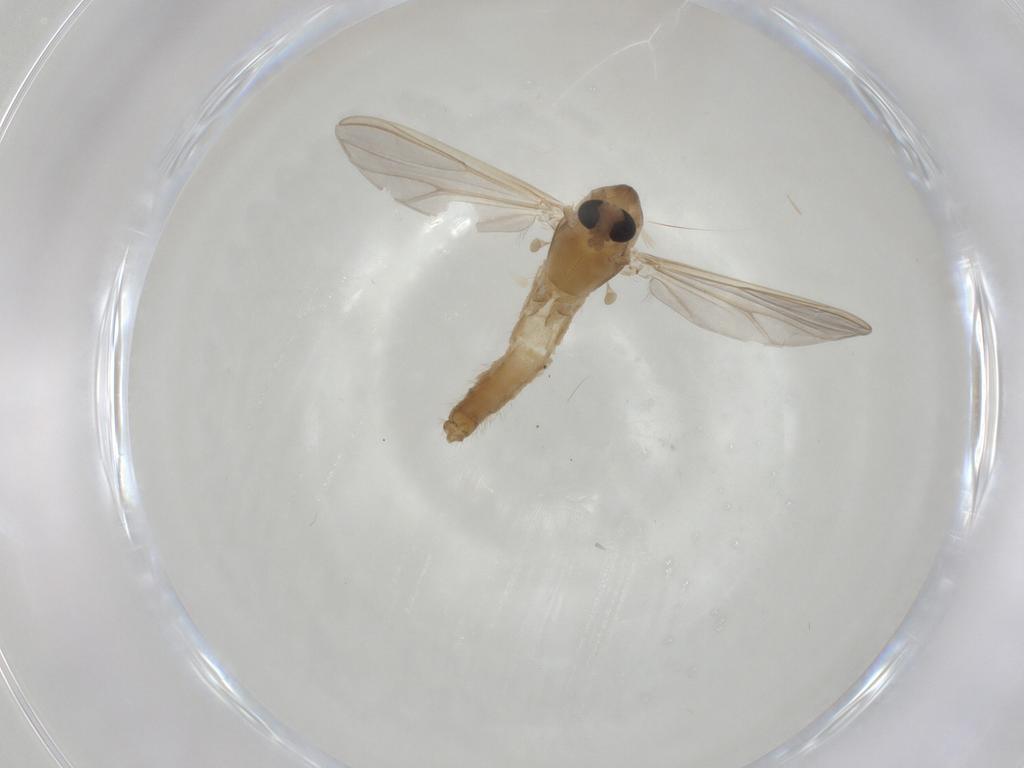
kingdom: Animalia
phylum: Arthropoda
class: Insecta
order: Diptera
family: Chironomidae
